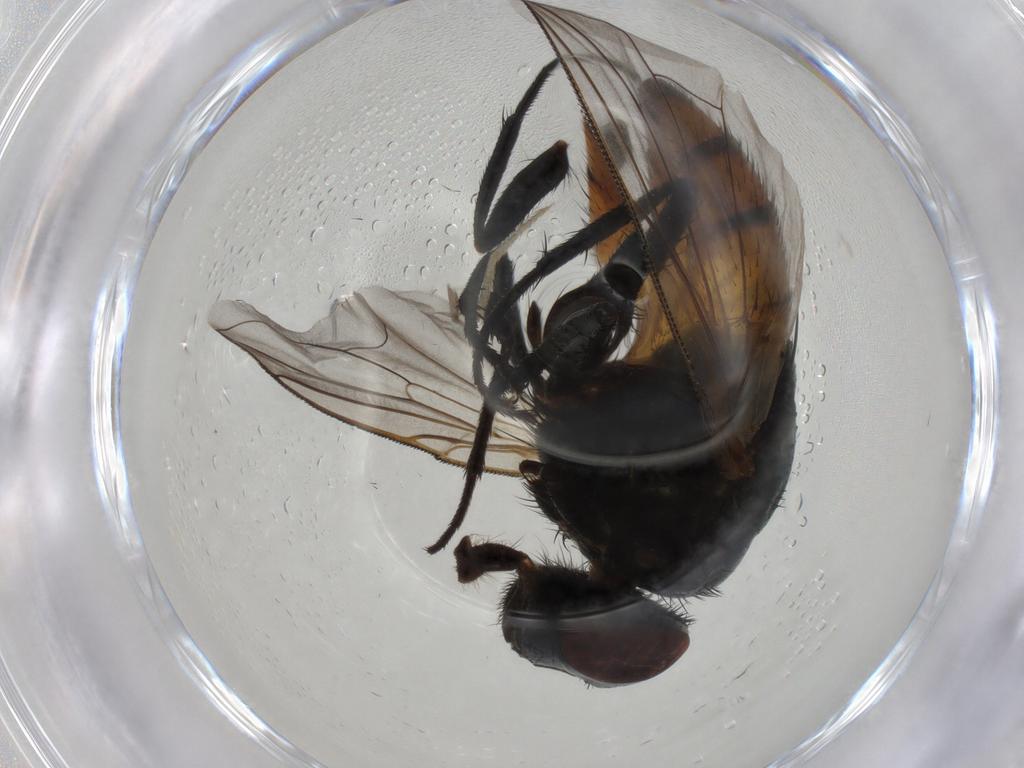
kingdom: Animalia
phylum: Arthropoda
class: Insecta
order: Diptera
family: Muscidae
